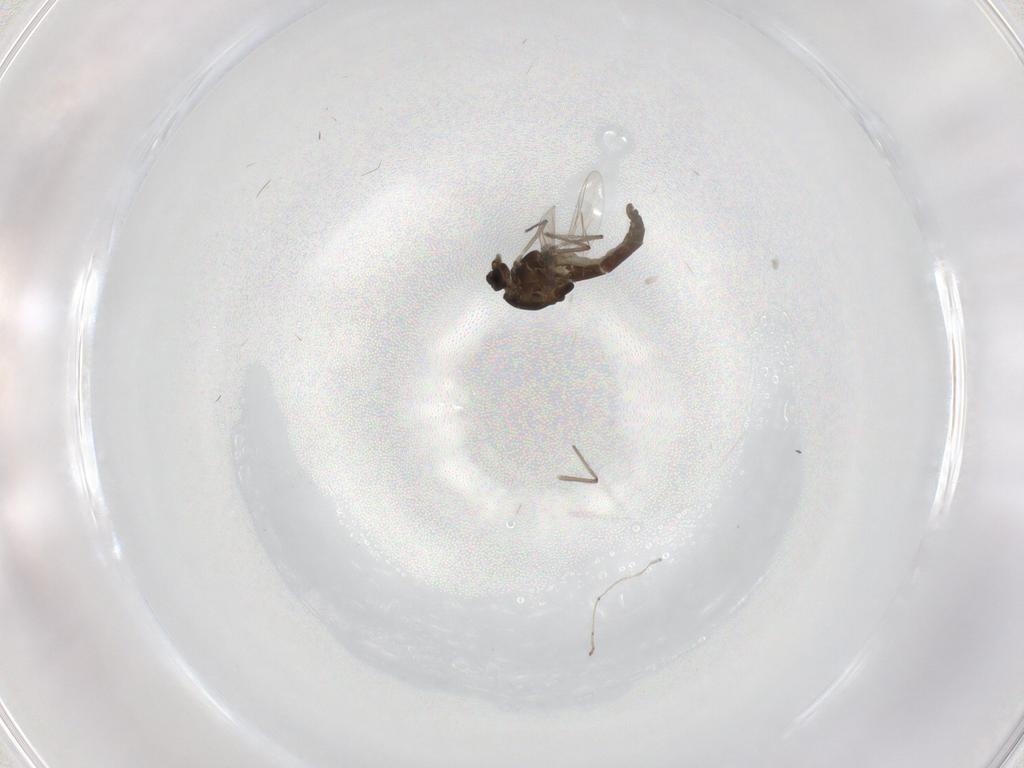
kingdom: Animalia
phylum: Arthropoda
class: Insecta
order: Diptera
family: Chironomidae
